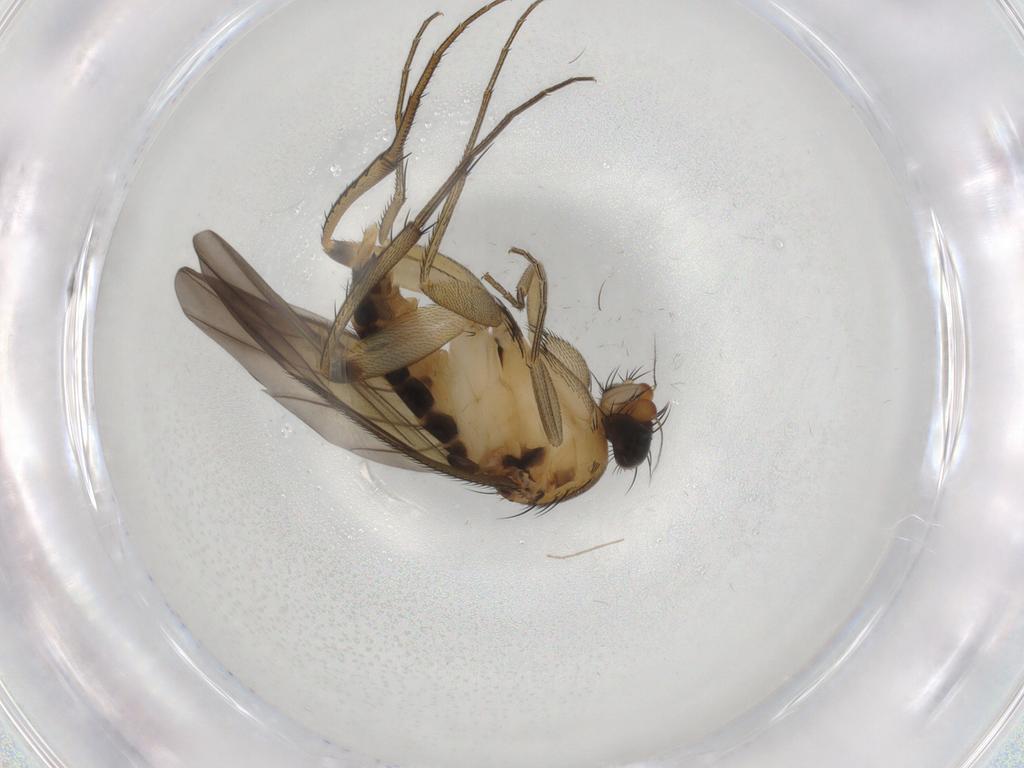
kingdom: Animalia
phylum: Arthropoda
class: Insecta
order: Diptera
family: Phoridae
